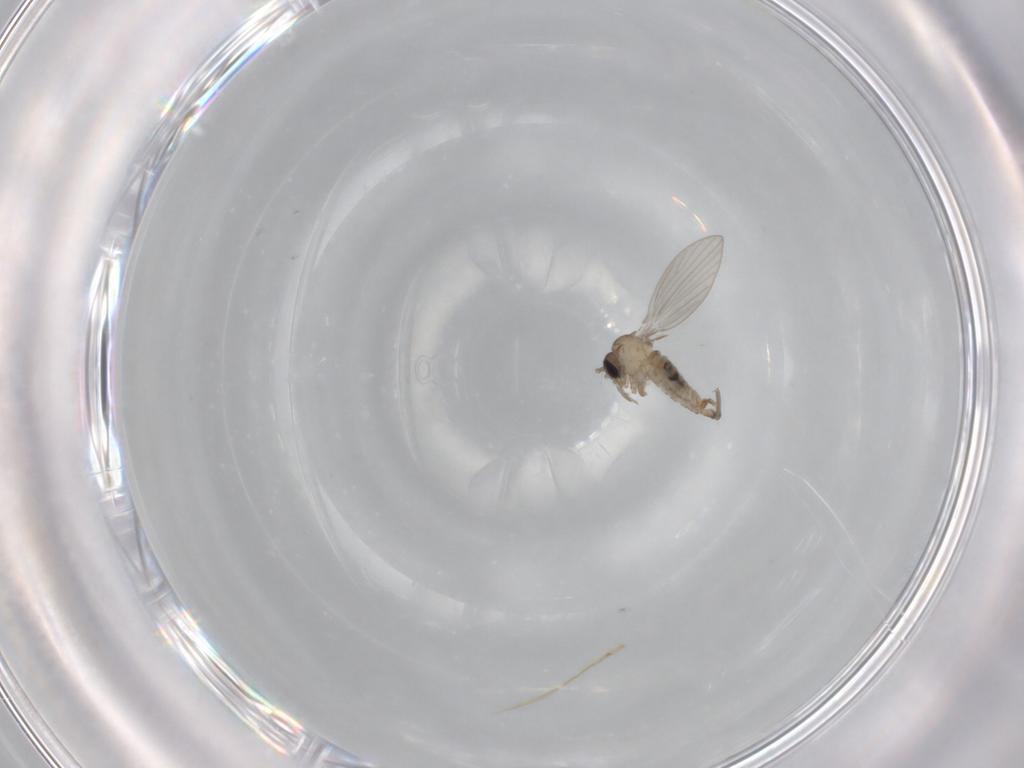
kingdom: Animalia
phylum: Arthropoda
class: Insecta
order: Diptera
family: Psychodidae
